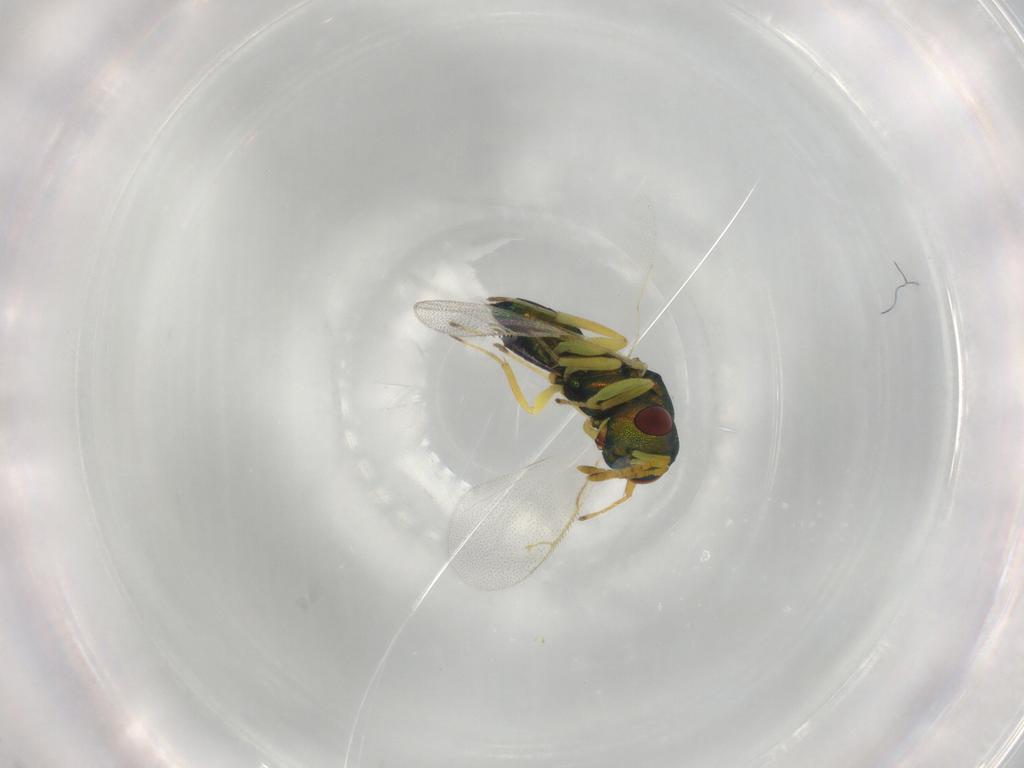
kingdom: Animalia
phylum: Arthropoda
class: Insecta
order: Hymenoptera
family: Pteromalidae
